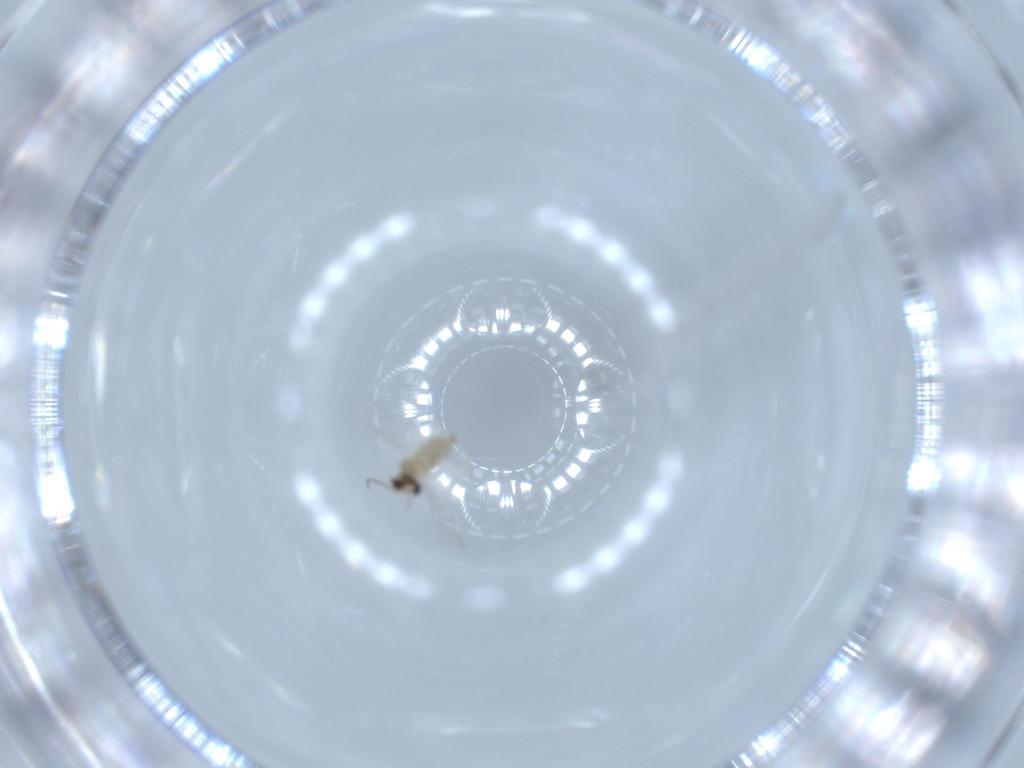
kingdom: Animalia
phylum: Arthropoda
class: Insecta
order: Diptera
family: Cecidomyiidae
